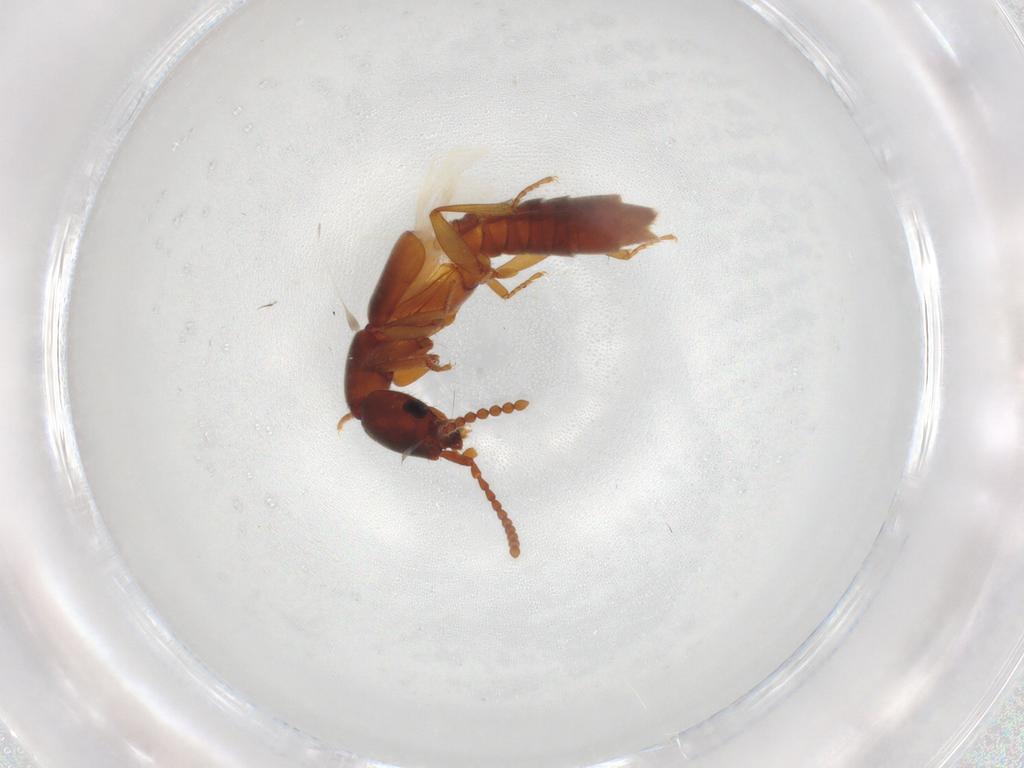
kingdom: Animalia
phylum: Arthropoda
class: Insecta
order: Coleoptera
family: Staphylinidae
